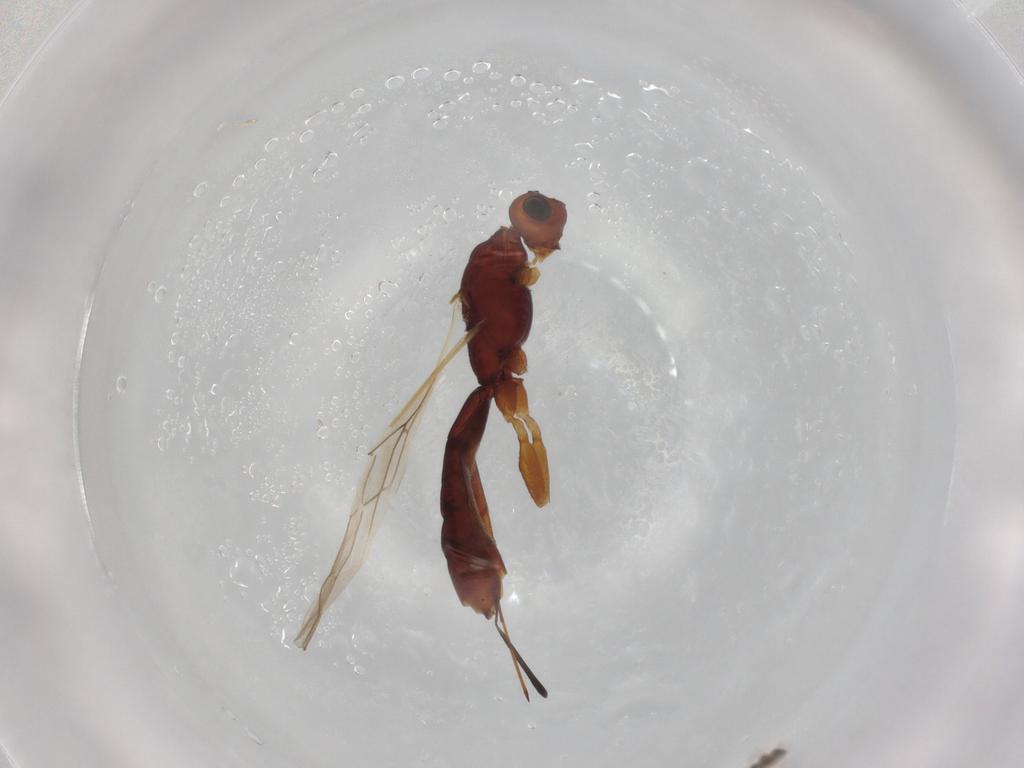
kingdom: Animalia
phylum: Arthropoda
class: Insecta
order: Hymenoptera
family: Braconidae
